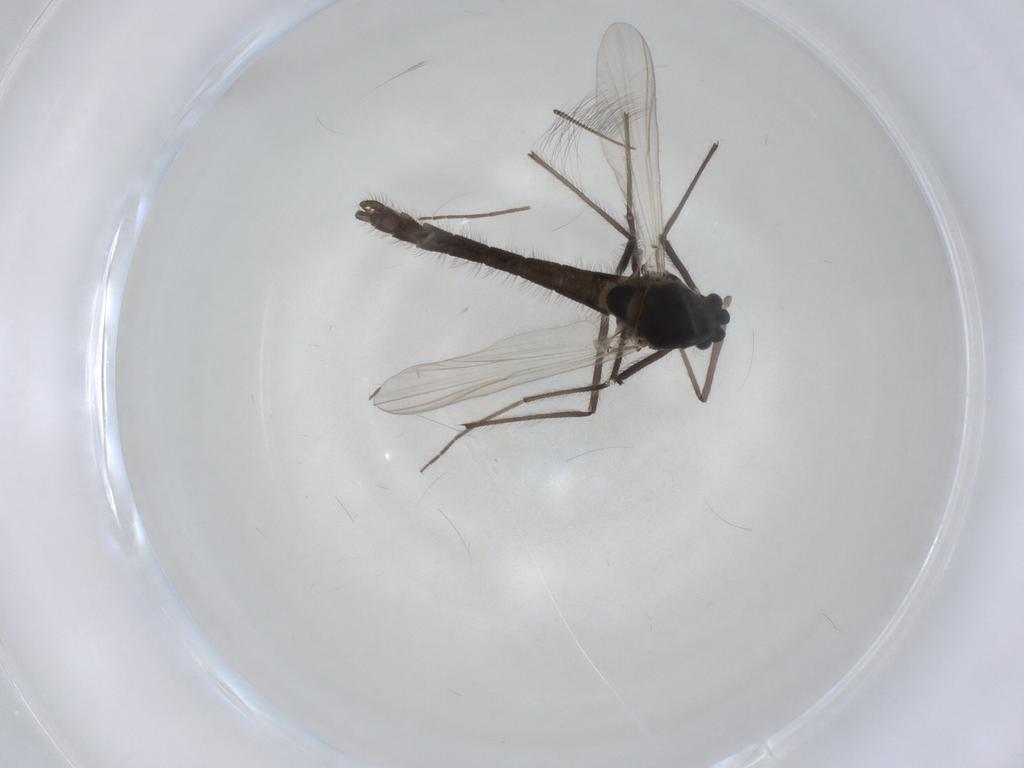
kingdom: Animalia
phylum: Arthropoda
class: Insecta
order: Diptera
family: Chironomidae
